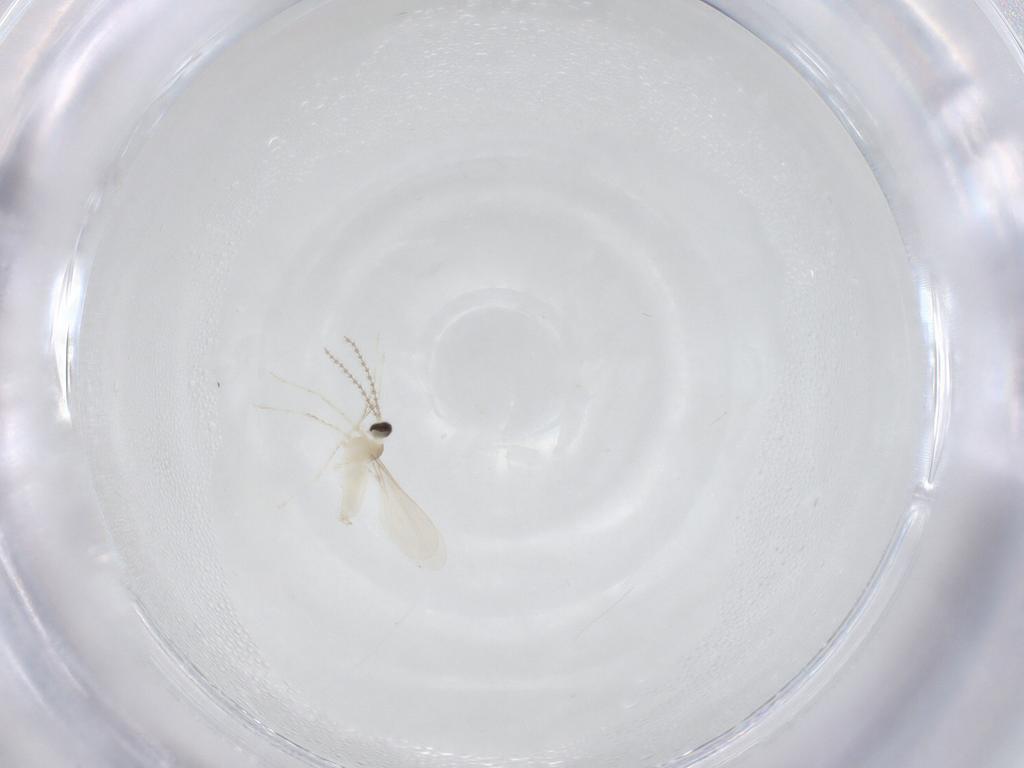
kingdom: Animalia
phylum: Arthropoda
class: Insecta
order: Diptera
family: Cecidomyiidae
